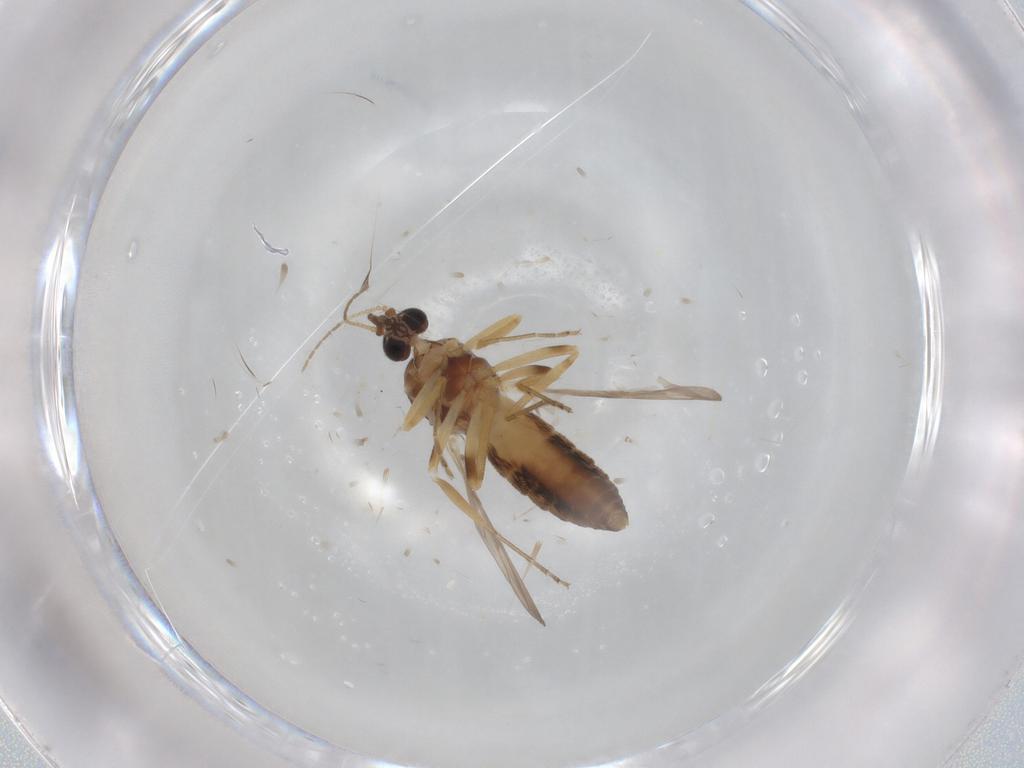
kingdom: Animalia
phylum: Arthropoda
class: Insecta
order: Diptera
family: Ceratopogonidae
